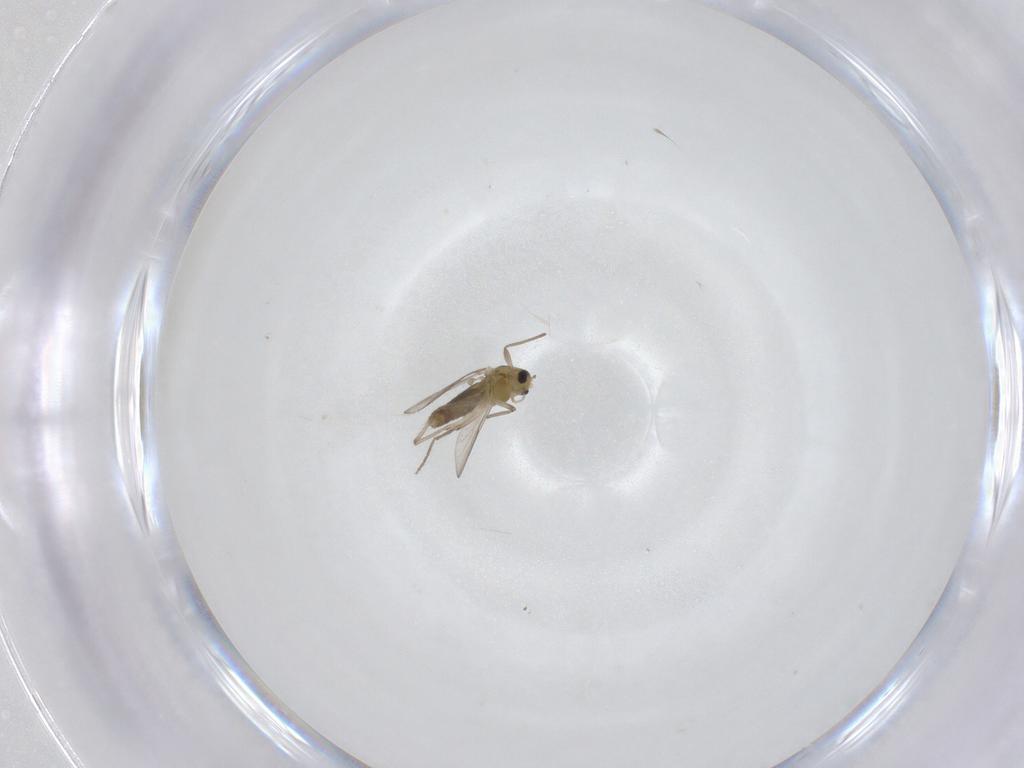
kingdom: Animalia
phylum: Arthropoda
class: Insecta
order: Diptera
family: Chironomidae
